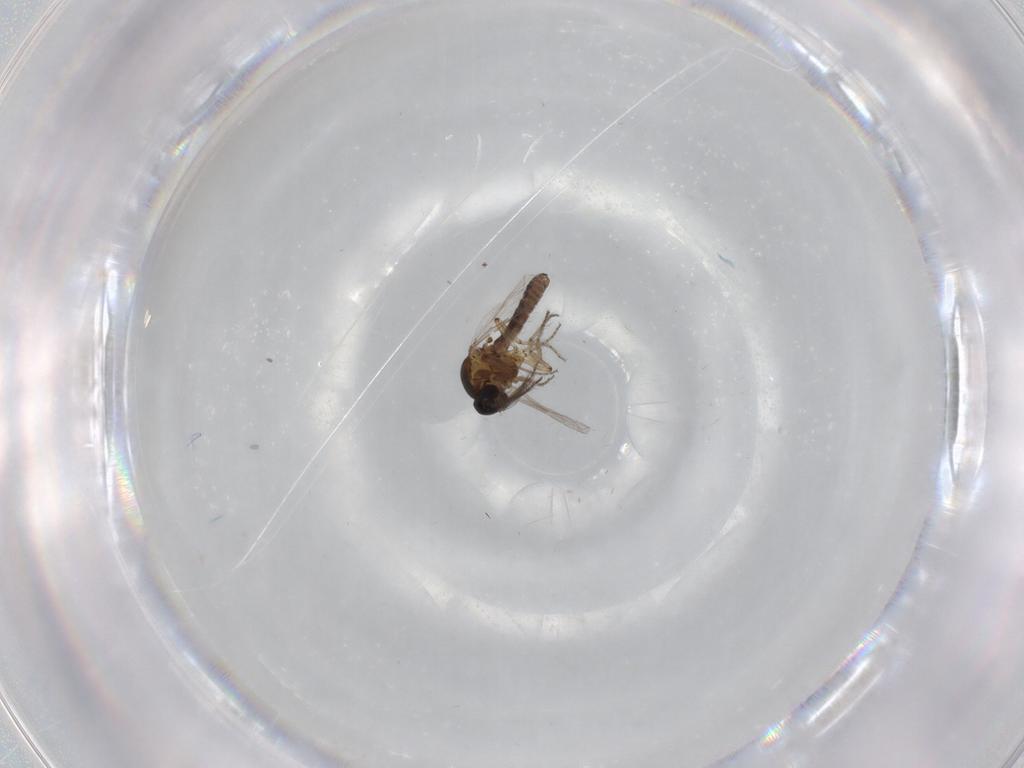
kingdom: Animalia
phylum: Arthropoda
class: Insecta
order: Diptera
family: Ceratopogonidae
